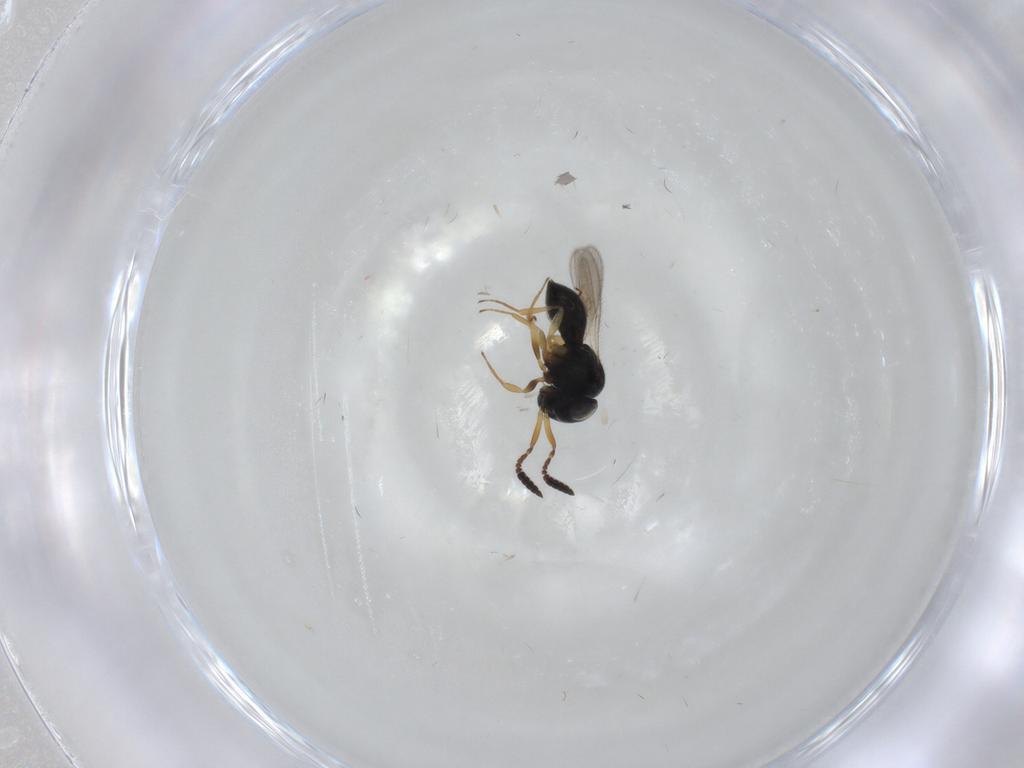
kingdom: Animalia
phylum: Arthropoda
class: Insecta
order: Hymenoptera
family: Scelionidae
